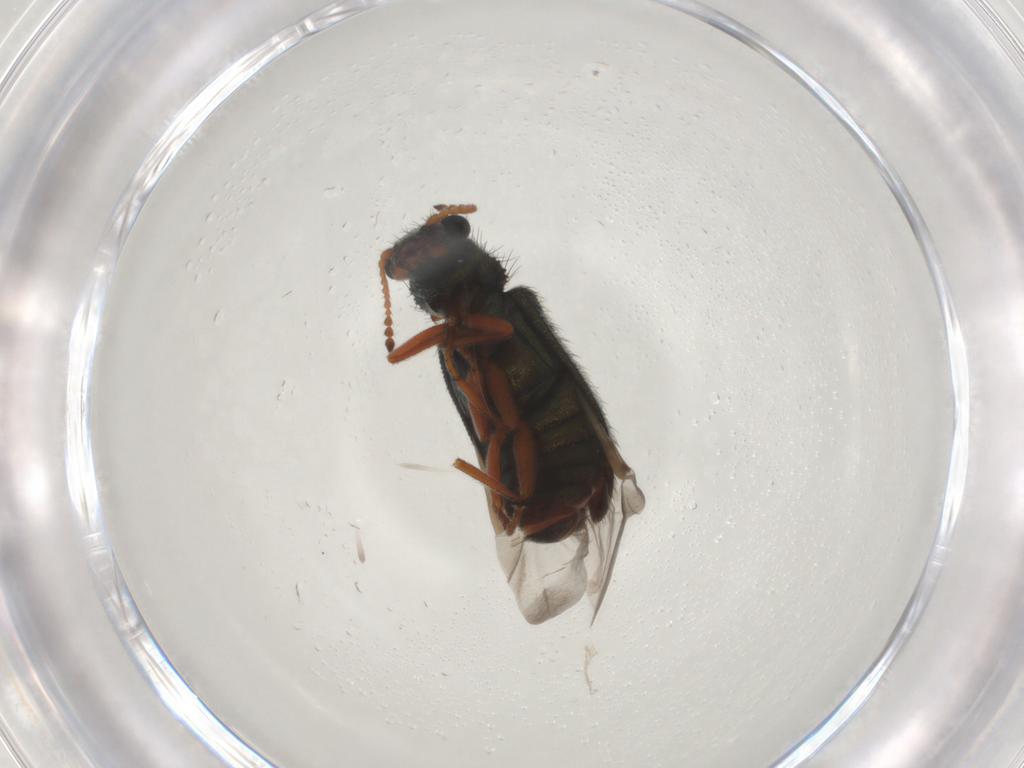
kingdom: Animalia
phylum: Arthropoda
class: Insecta
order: Coleoptera
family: Melyridae
